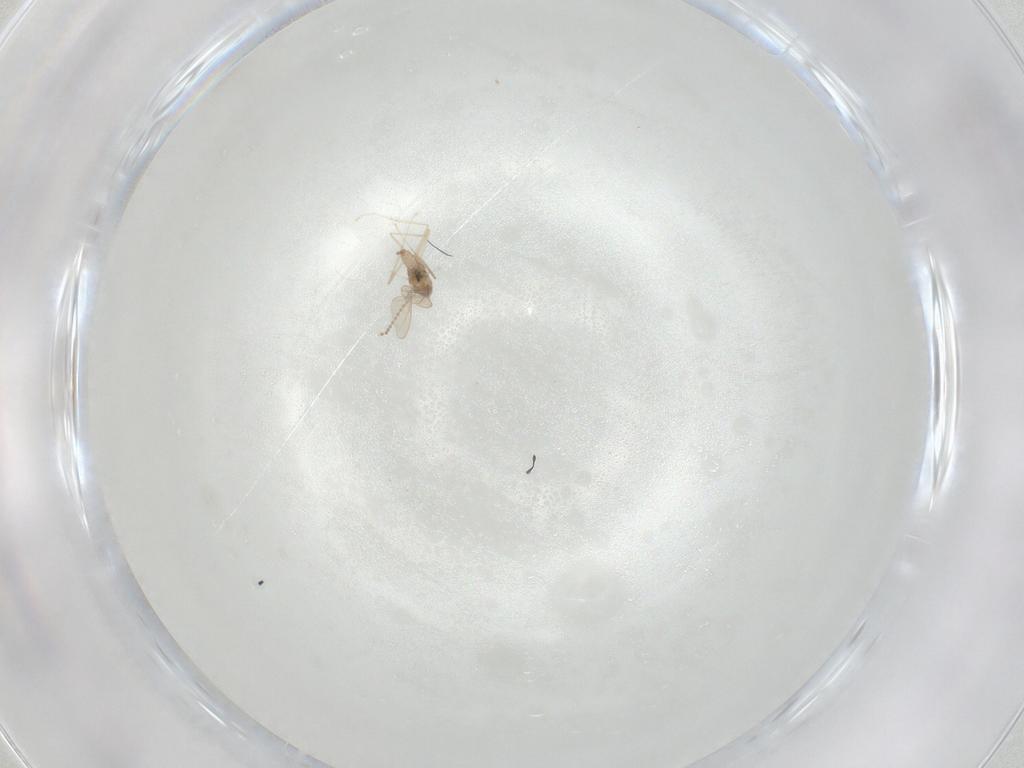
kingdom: Animalia
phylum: Arthropoda
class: Insecta
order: Diptera
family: Cecidomyiidae
